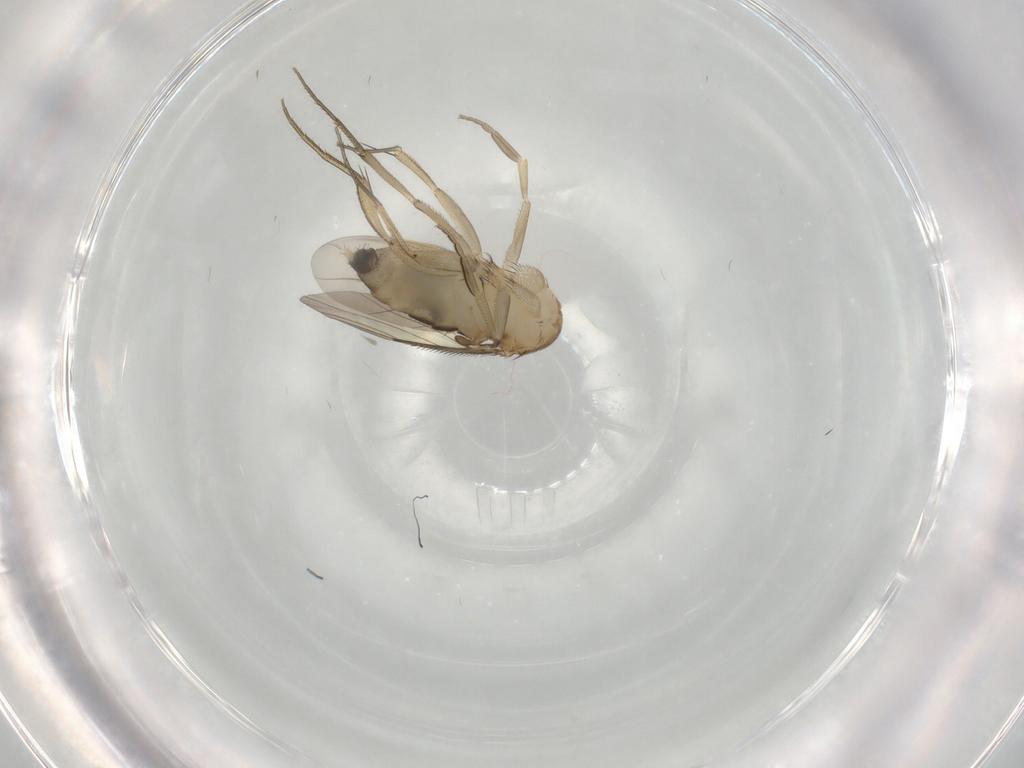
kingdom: Animalia
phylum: Arthropoda
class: Insecta
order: Diptera
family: Phoridae
